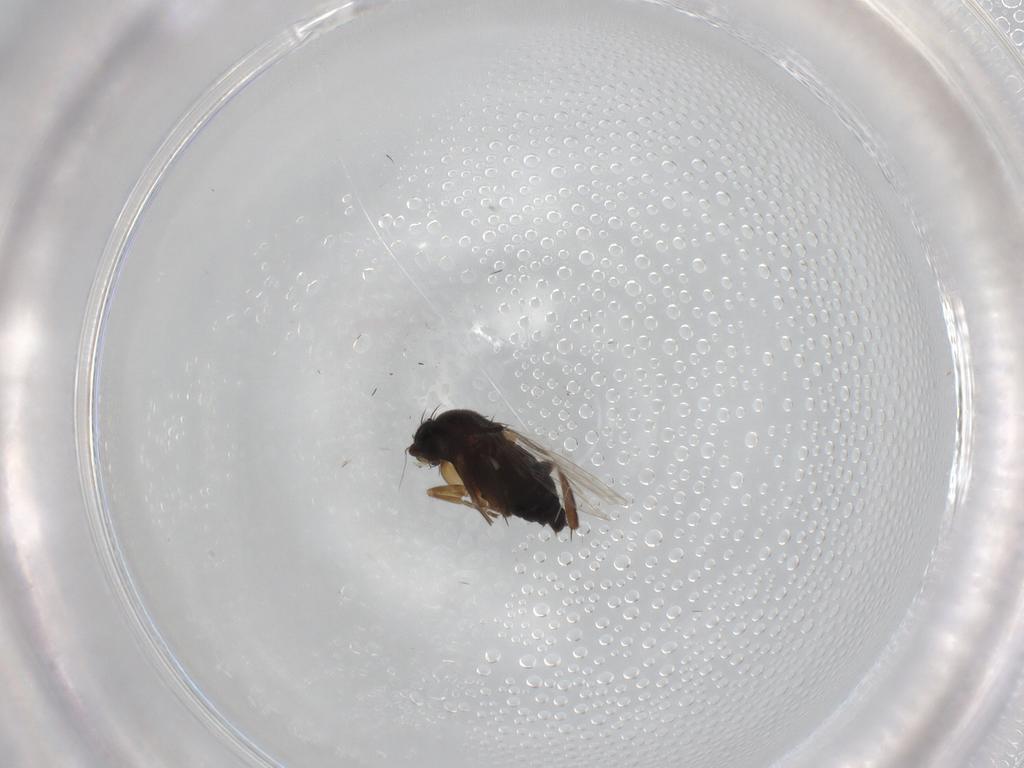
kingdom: Animalia
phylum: Arthropoda
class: Insecta
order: Diptera
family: Phoridae
